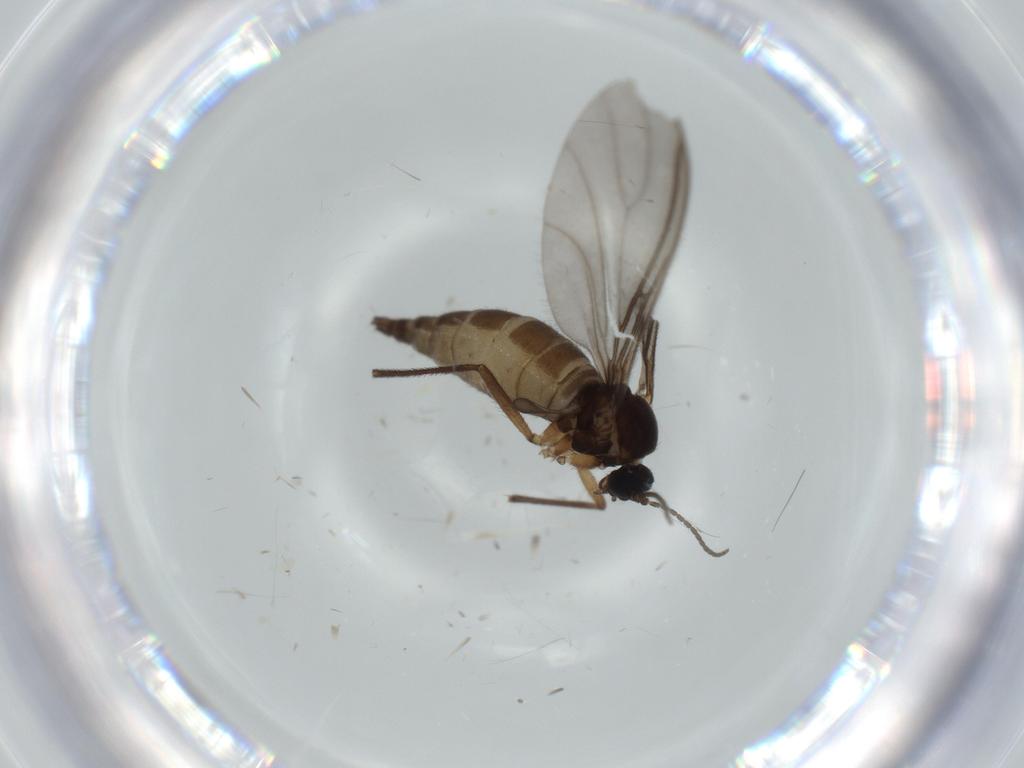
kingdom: Animalia
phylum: Arthropoda
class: Insecta
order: Diptera
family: Sciaridae
